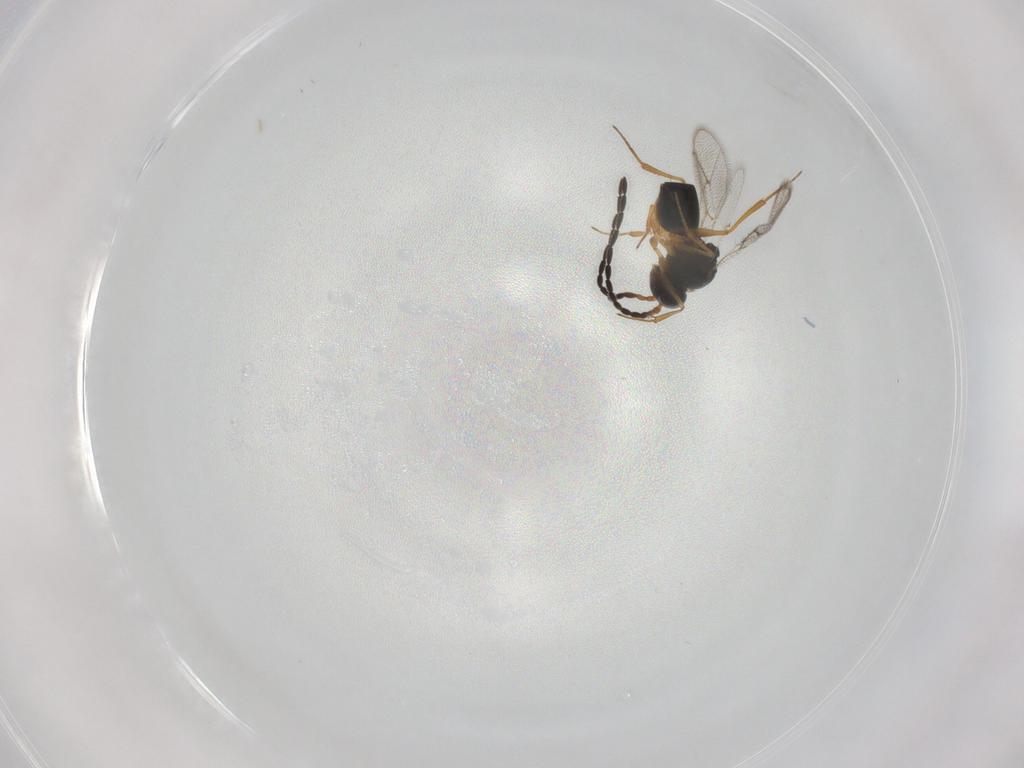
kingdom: Animalia
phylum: Arthropoda
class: Insecta
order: Hymenoptera
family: Figitidae
